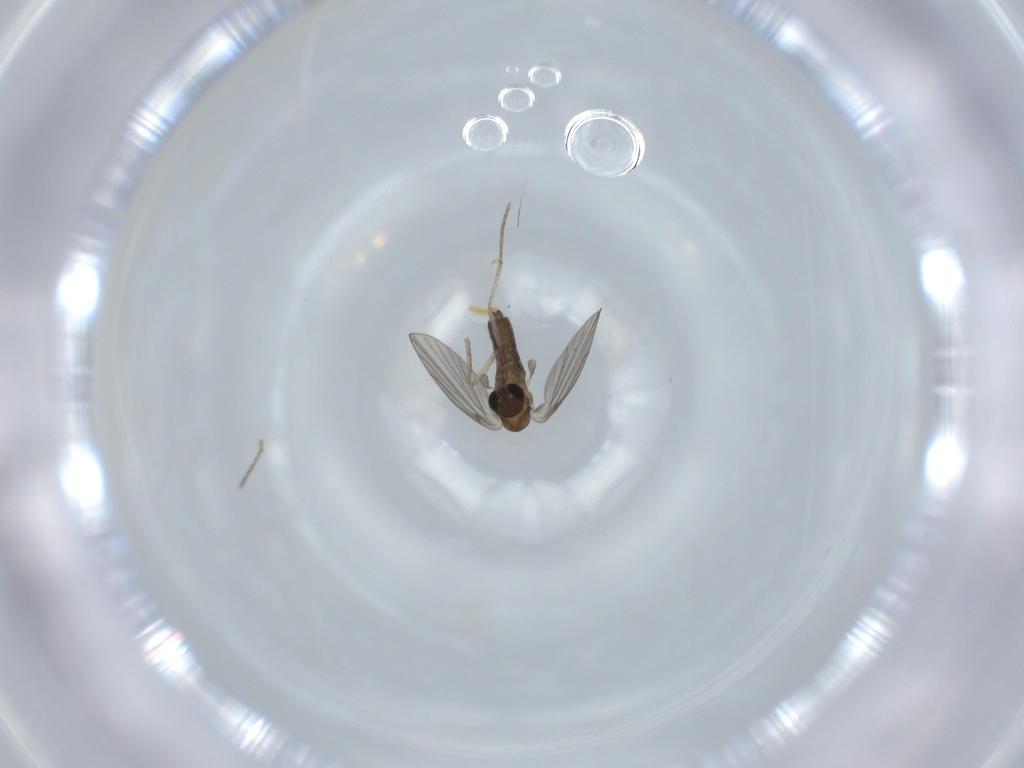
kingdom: Animalia
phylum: Arthropoda
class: Insecta
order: Diptera
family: Psychodidae
